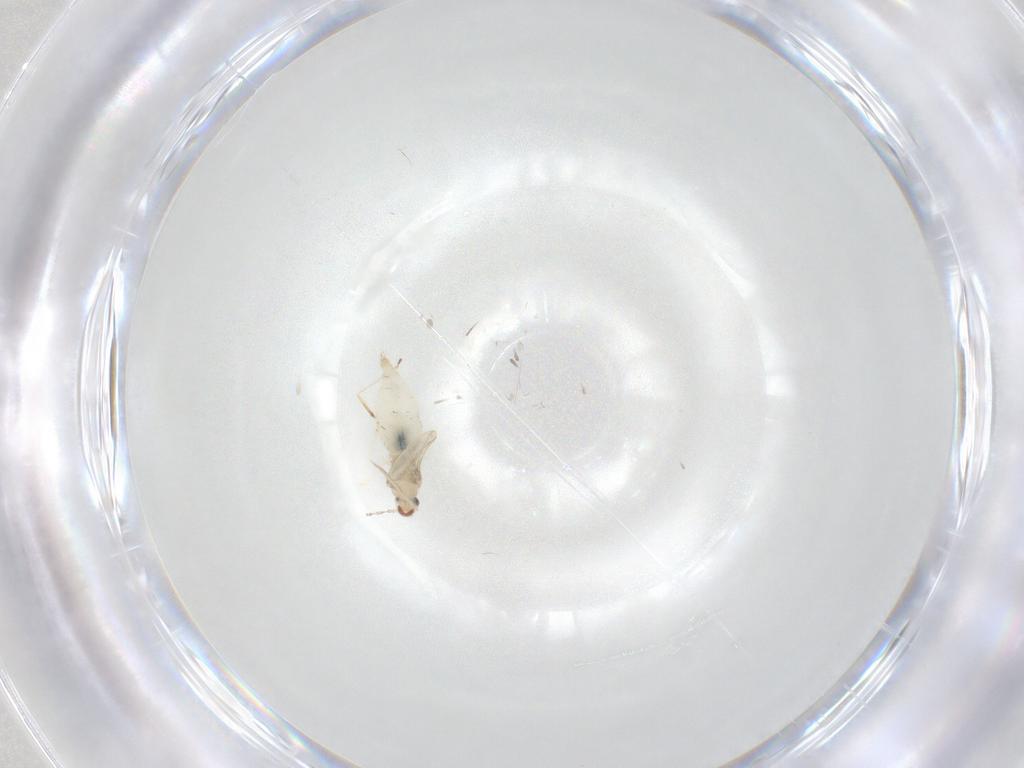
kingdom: Animalia
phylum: Arthropoda
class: Insecta
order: Diptera
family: Cecidomyiidae
